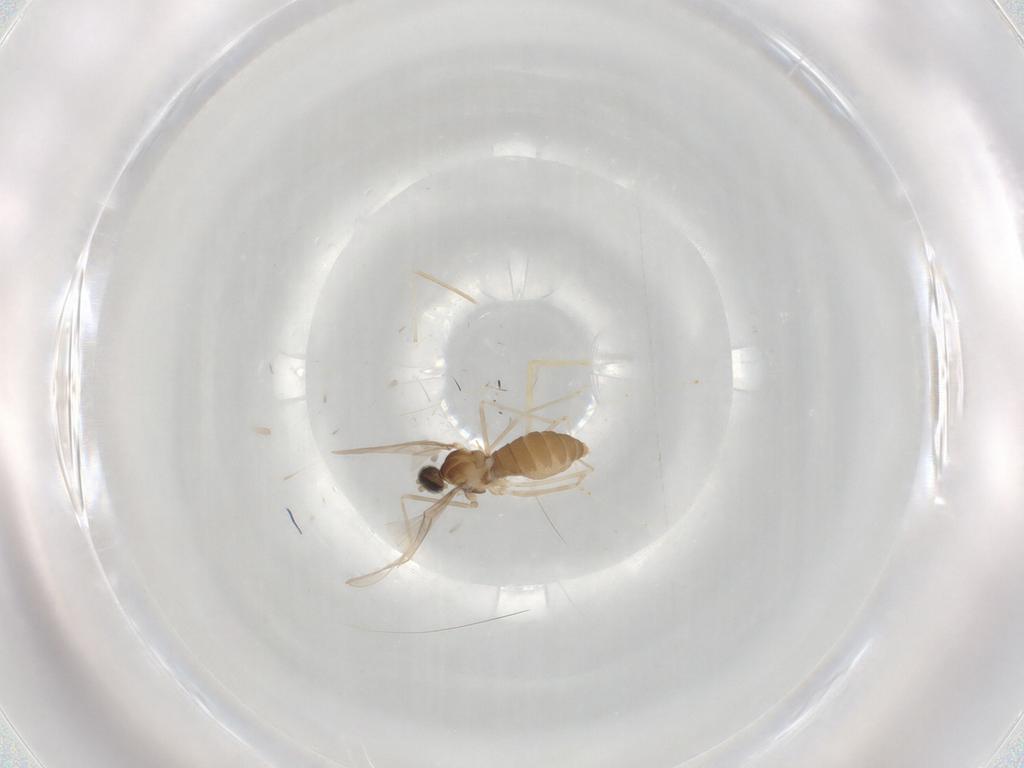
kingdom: Animalia
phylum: Arthropoda
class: Insecta
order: Diptera
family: Cecidomyiidae
